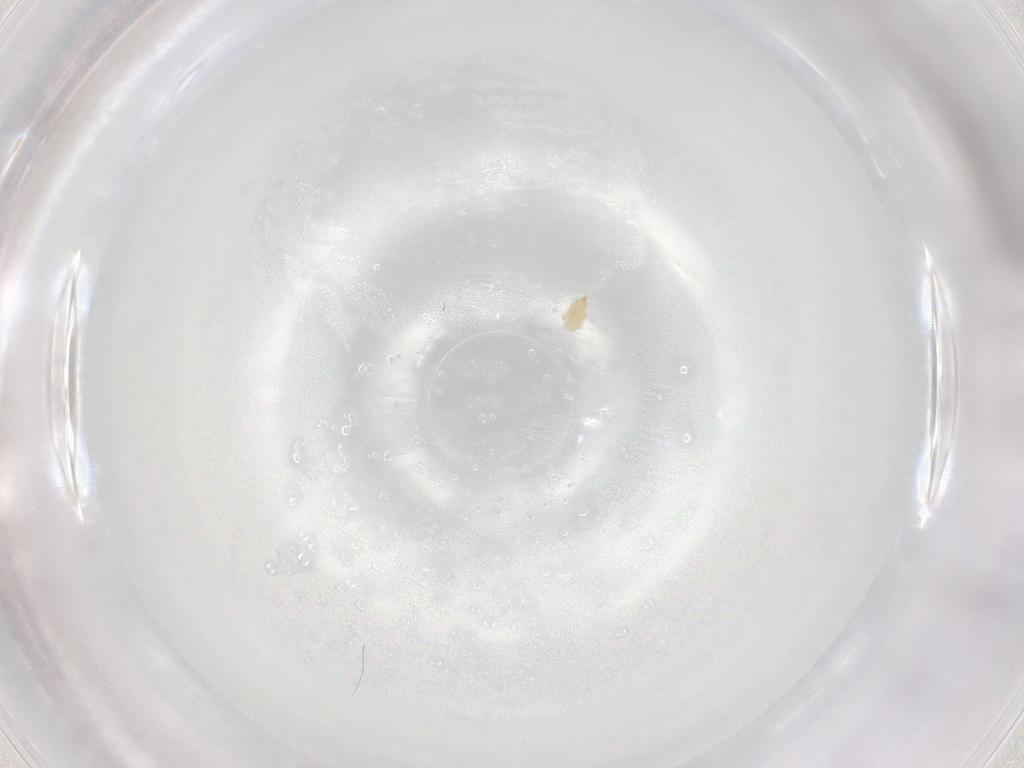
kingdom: Animalia
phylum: Arthropoda
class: Arachnida
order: Trombidiformes
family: Cunaxidae
